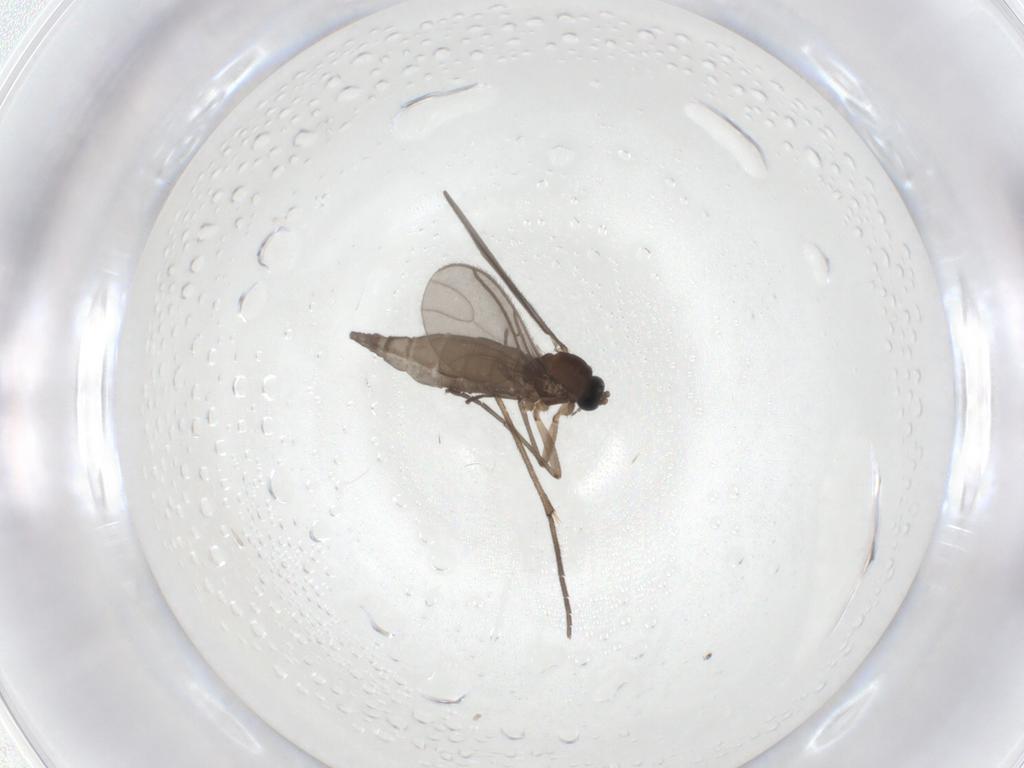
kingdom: Animalia
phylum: Arthropoda
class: Insecta
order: Diptera
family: Sciaridae
